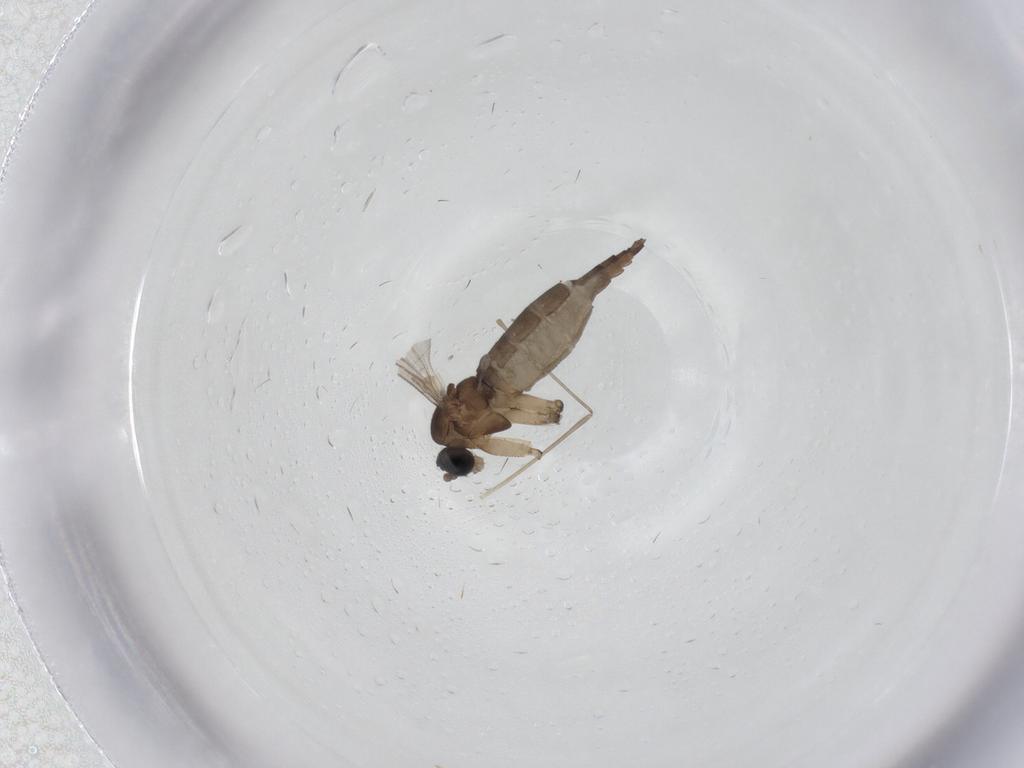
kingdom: Animalia
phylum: Arthropoda
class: Insecta
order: Diptera
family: Sciaridae
